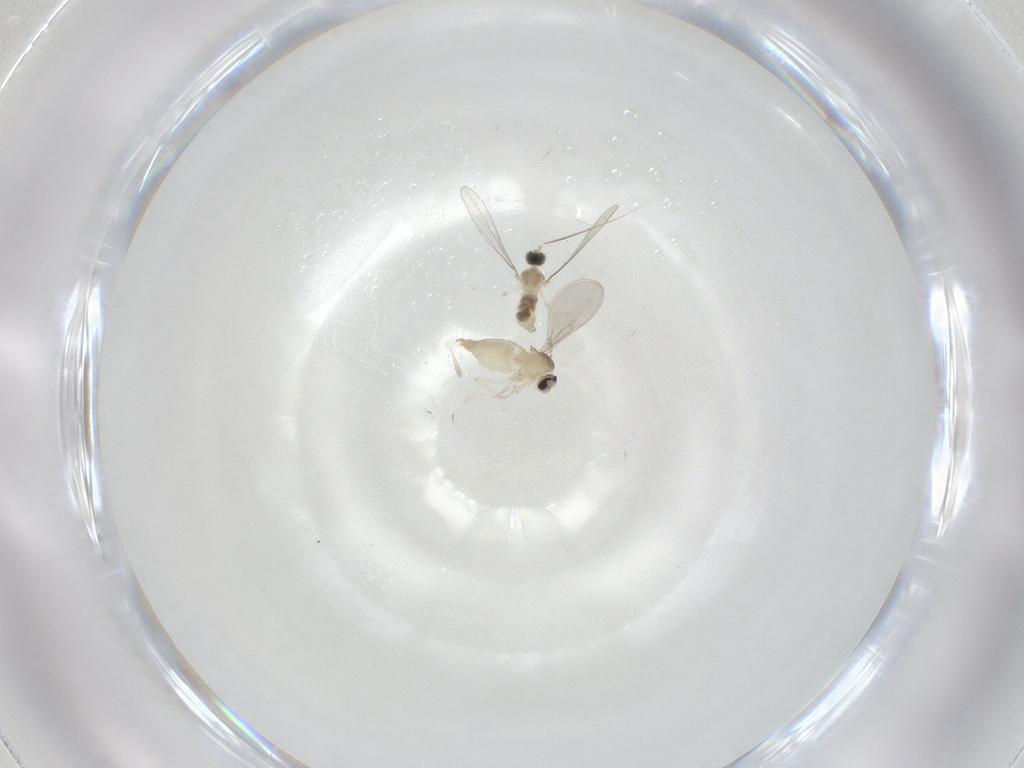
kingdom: Animalia
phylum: Arthropoda
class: Insecta
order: Diptera
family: Cecidomyiidae
